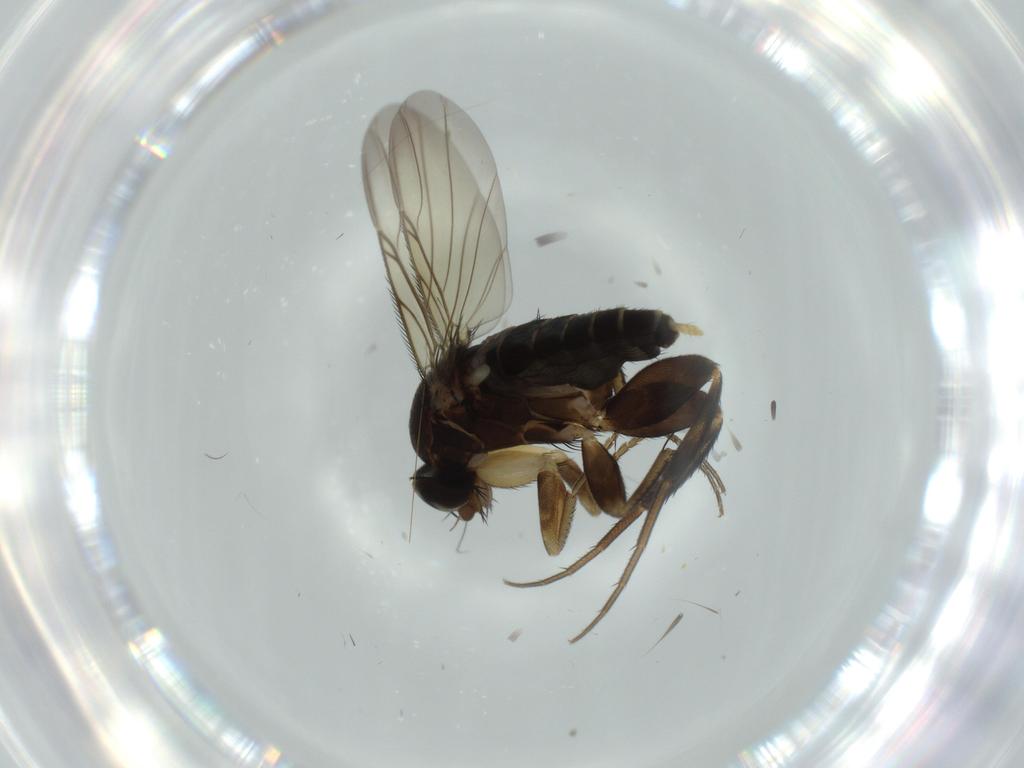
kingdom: Animalia
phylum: Arthropoda
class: Insecta
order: Diptera
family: Phoridae
